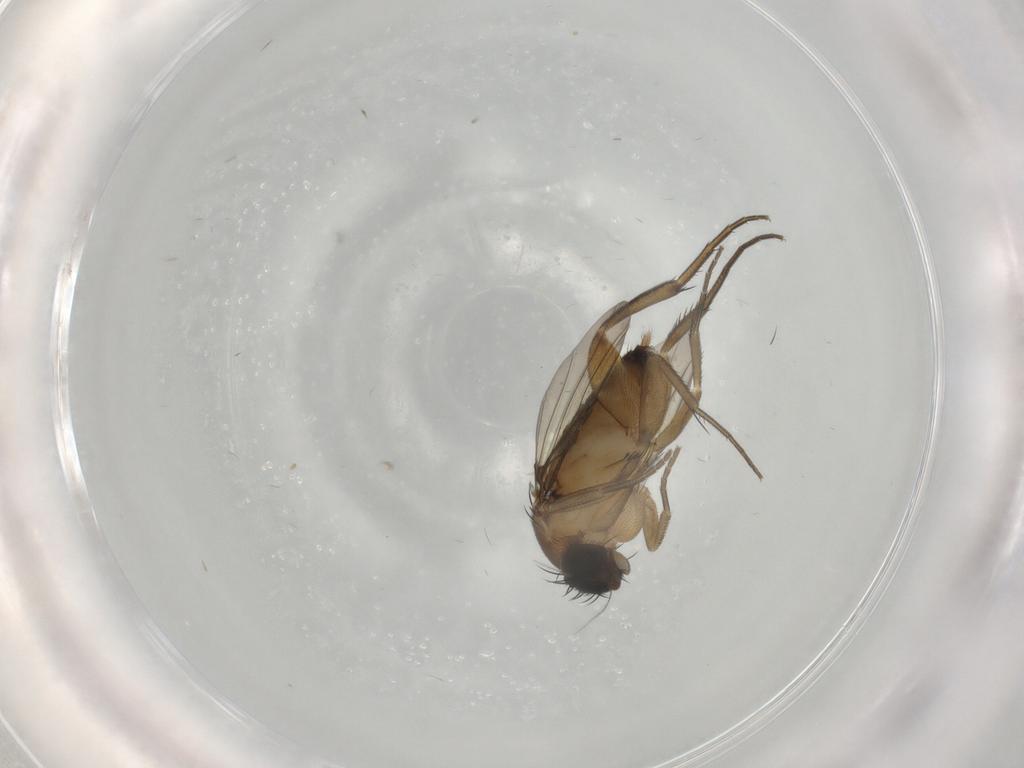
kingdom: Animalia
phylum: Arthropoda
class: Insecta
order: Diptera
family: Phoridae
